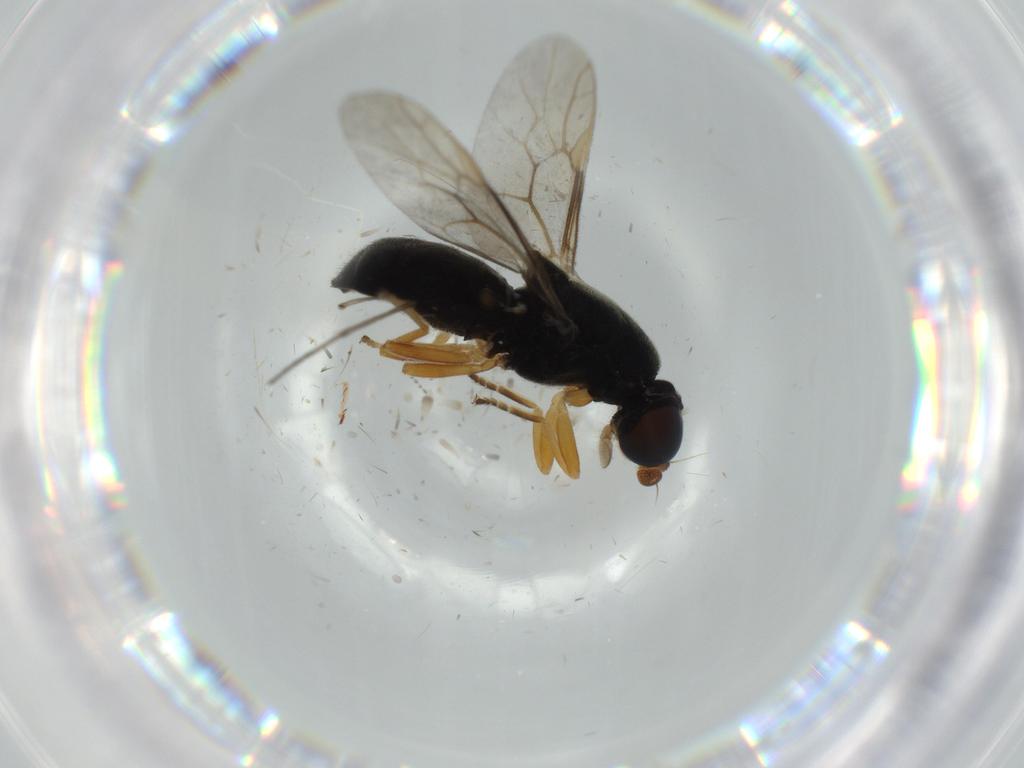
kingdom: Animalia
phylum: Arthropoda
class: Insecta
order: Diptera
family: Stratiomyidae
